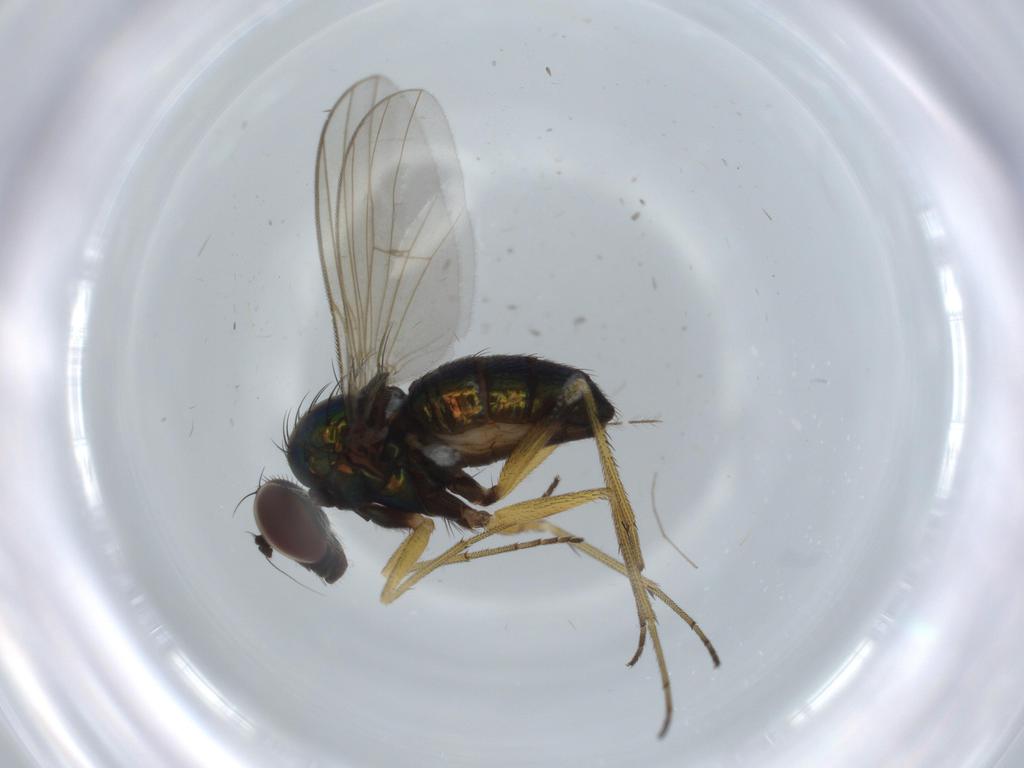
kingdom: Animalia
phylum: Arthropoda
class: Insecta
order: Diptera
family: Dolichopodidae
